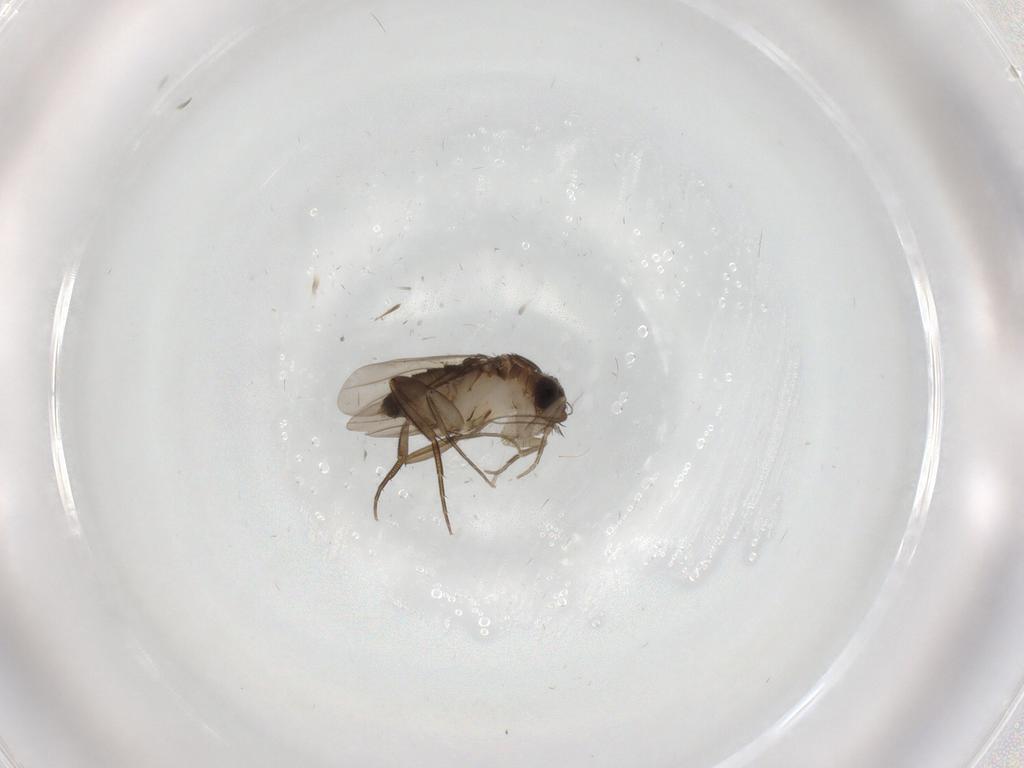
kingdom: Animalia
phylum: Arthropoda
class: Insecta
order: Diptera
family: Phoridae
